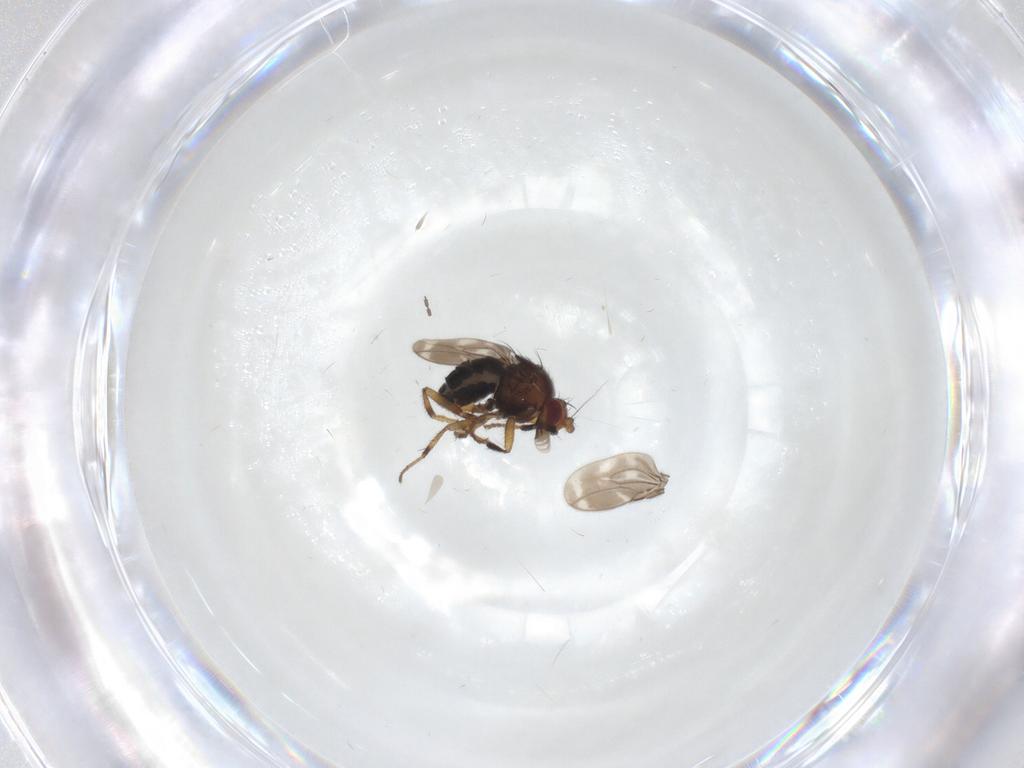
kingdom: Animalia
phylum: Arthropoda
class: Insecta
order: Diptera
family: Sphaeroceridae
